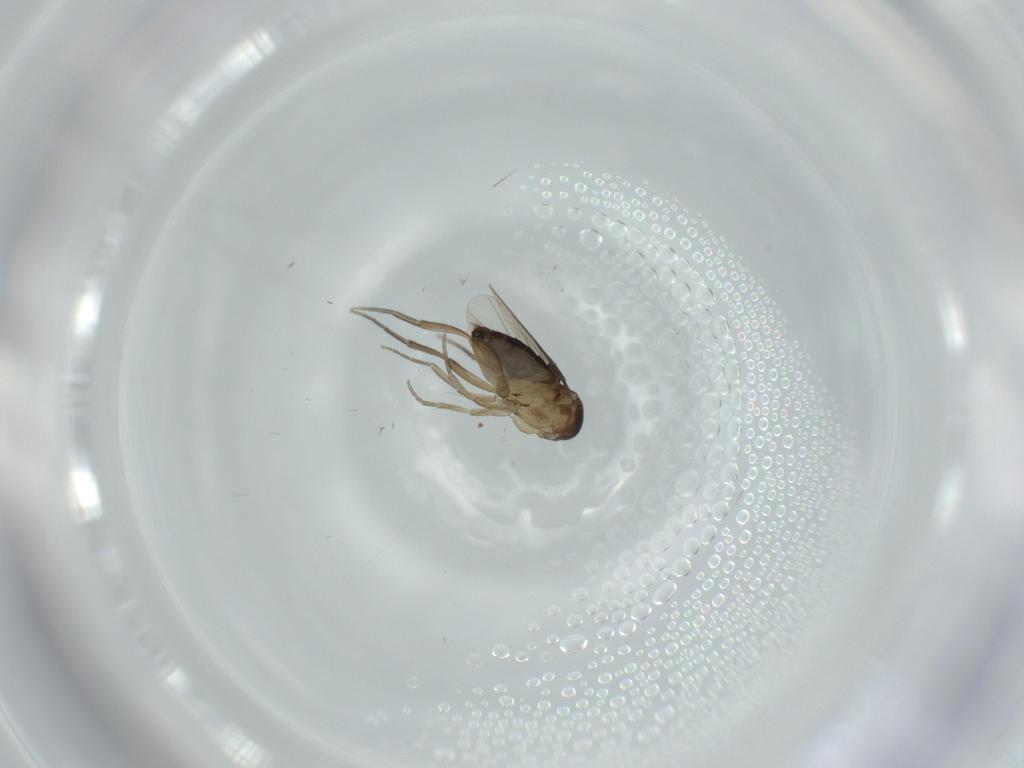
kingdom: Animalia
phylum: Arthropoda
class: Insecta
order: Diptera
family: Phoridae
